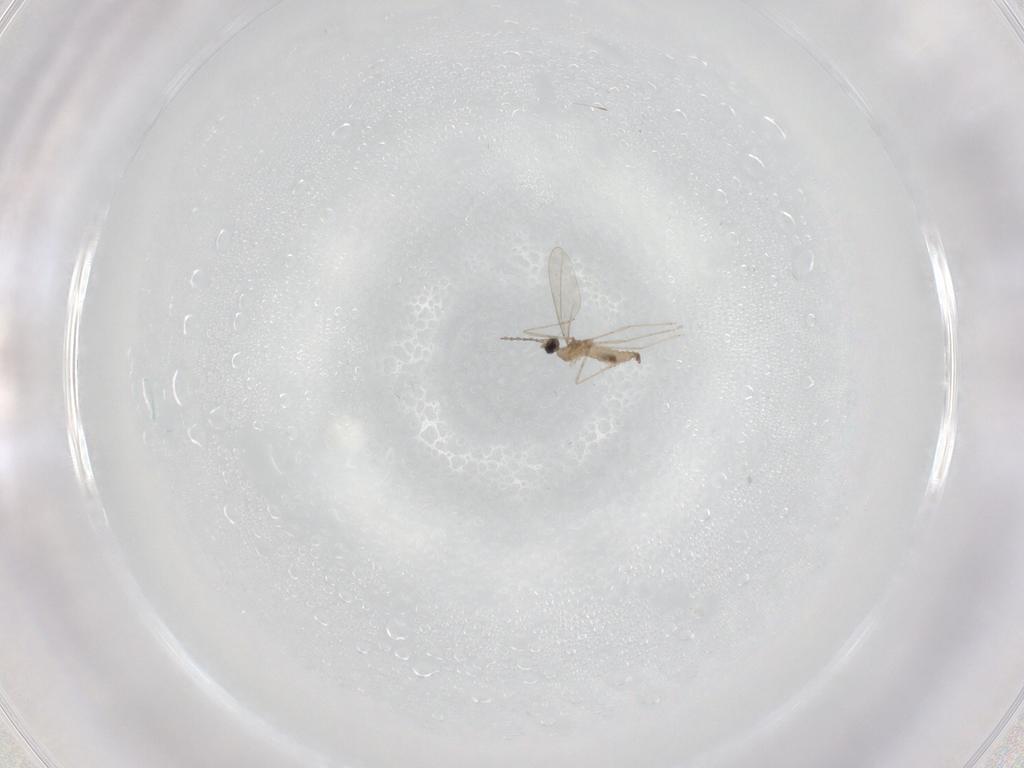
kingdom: Animalia
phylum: Arthropoda
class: Insecta
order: Diptera
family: Cecidomyiidae
